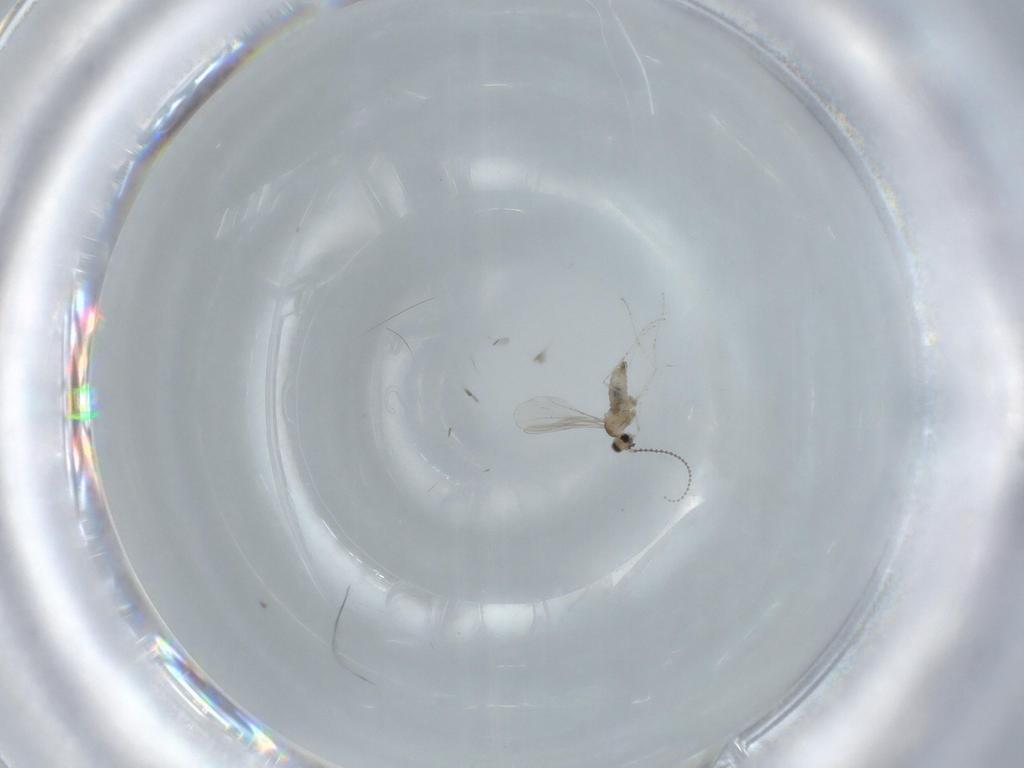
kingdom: Animalia
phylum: Arthropoda
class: Insecta
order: Diptera
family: Cecidomyiidae
